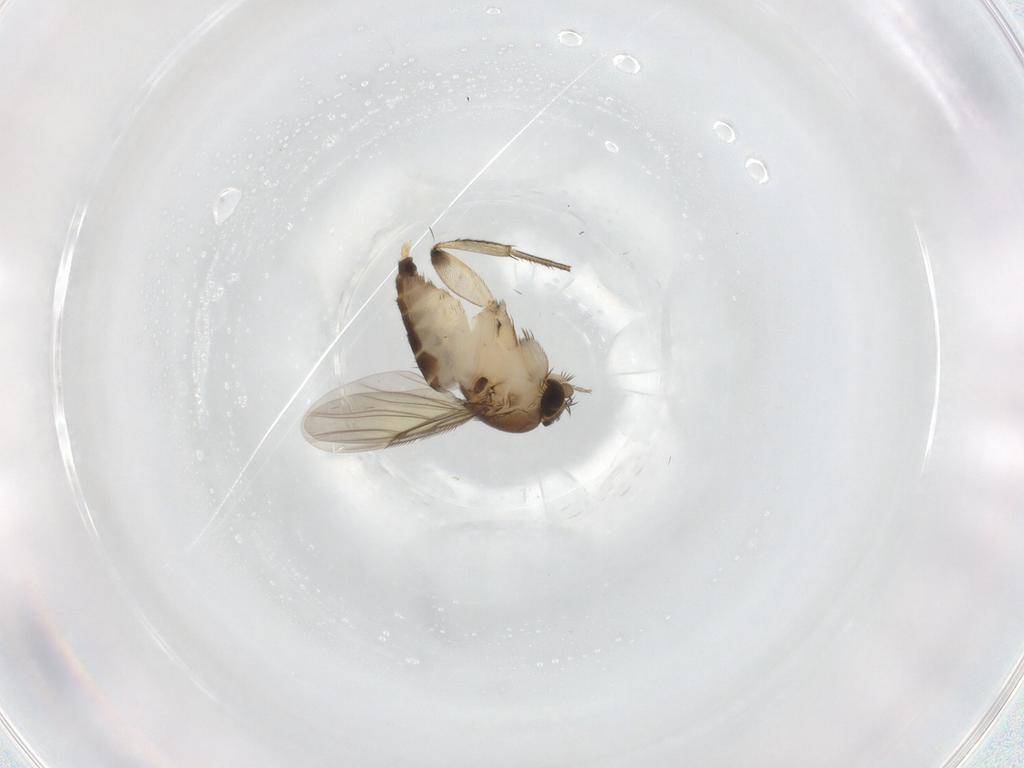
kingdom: Animalia
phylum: Arthropoda
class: Insecta
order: Diptera
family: Phoridae
